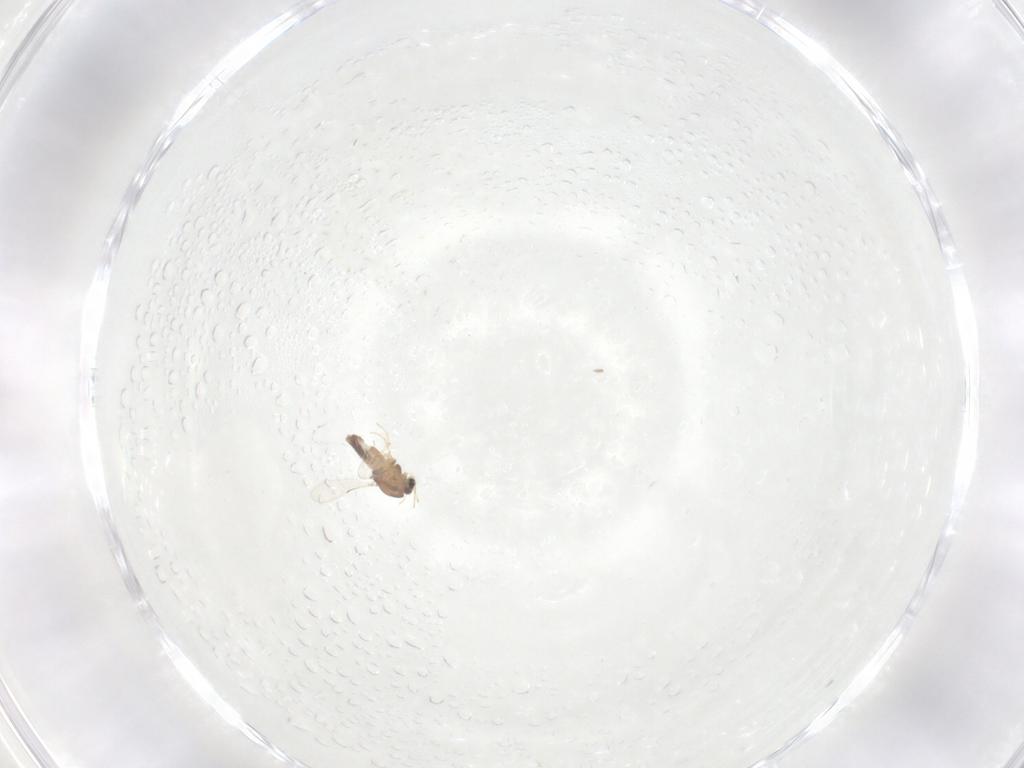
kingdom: Animalia
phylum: Arthropoda
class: Insecta
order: Diptera
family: Chironomidae
